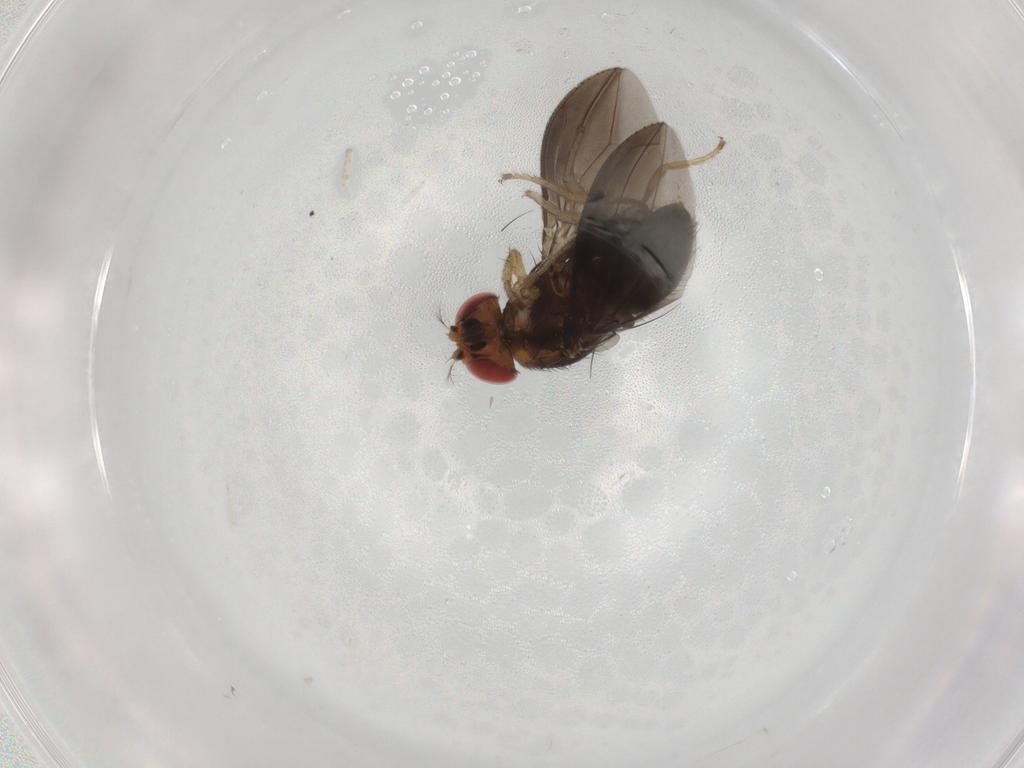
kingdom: Animalia
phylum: Arthropoda
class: Insecta
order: Diptera
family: Drosophilidae
